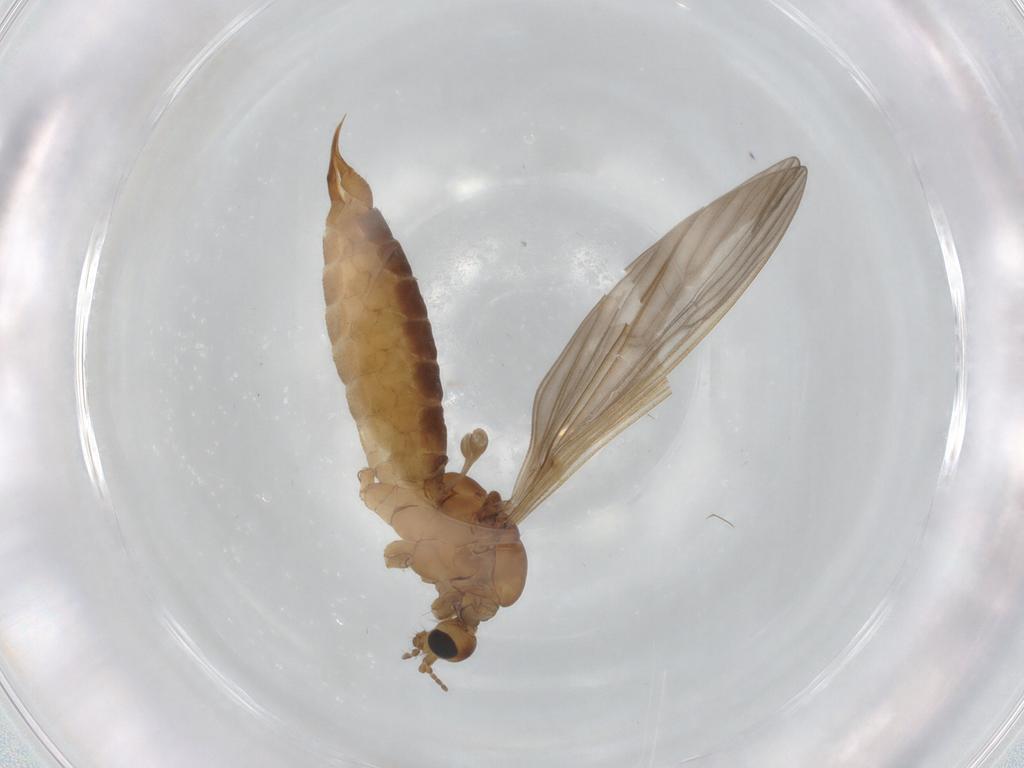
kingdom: Animalia
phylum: Arthropoda
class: Insecta
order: Diptera
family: Limoniidae
